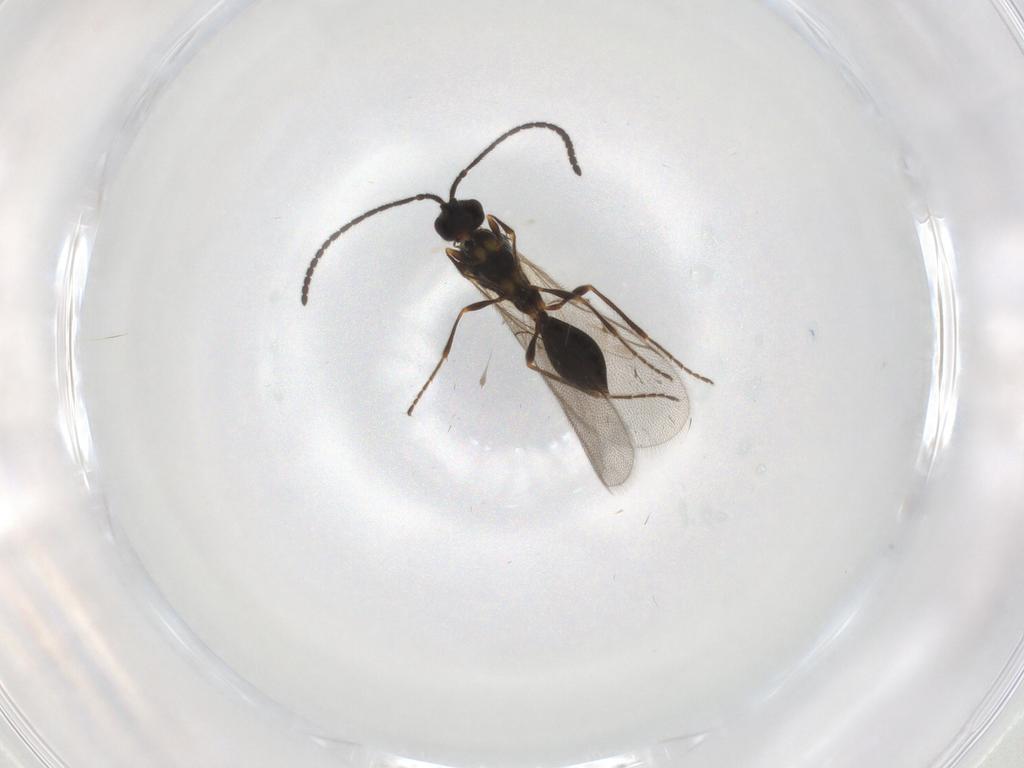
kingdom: Animalia
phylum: Arthropoda
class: Insecta
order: Hymenoptera
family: Diapriidae
